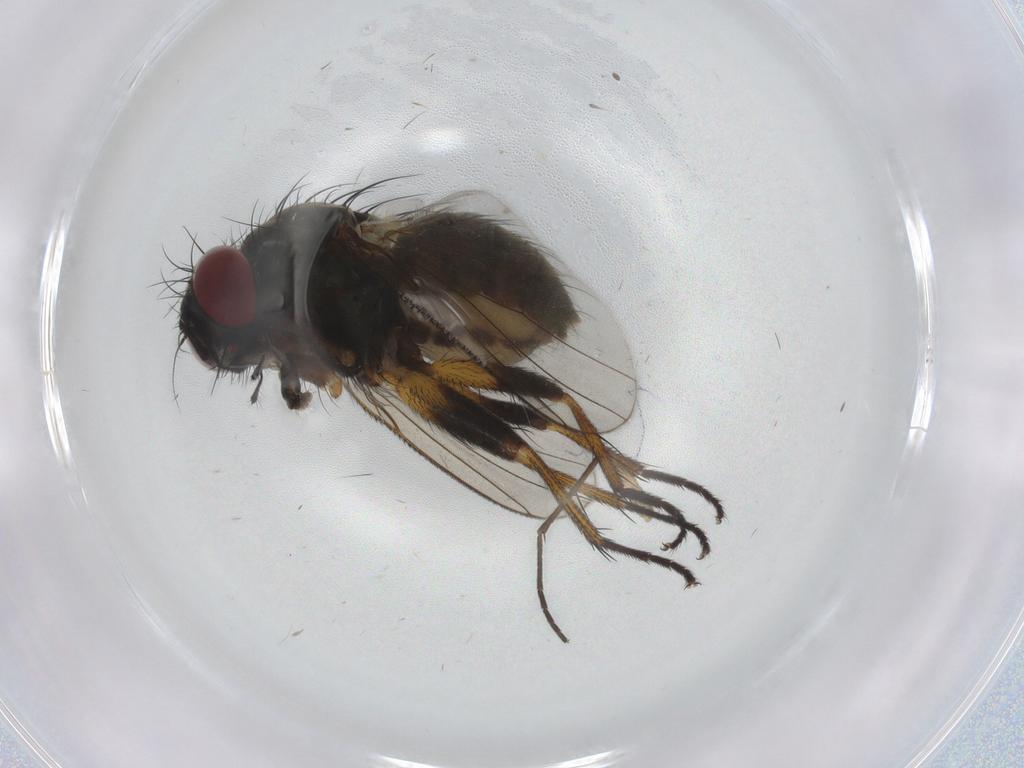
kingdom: Animalia
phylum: Arthropoda
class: Insecta
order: Diptera
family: Muscidae
